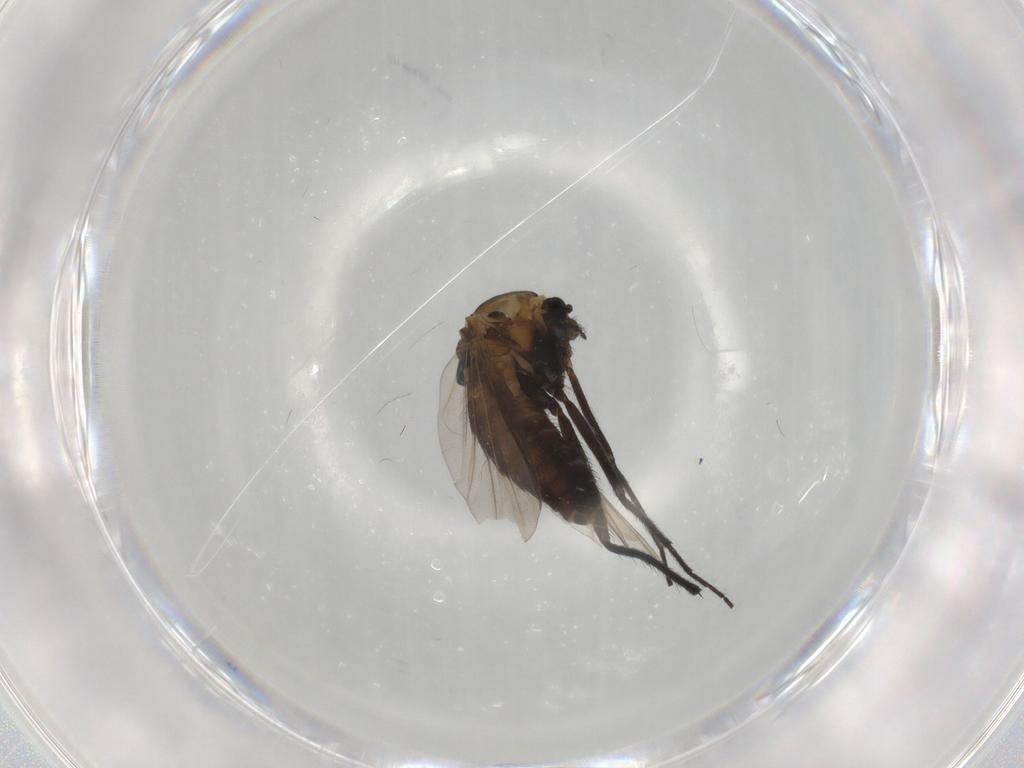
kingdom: Animalia
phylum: Arthropoda
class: Insecta
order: Diptera
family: Chironomidae
